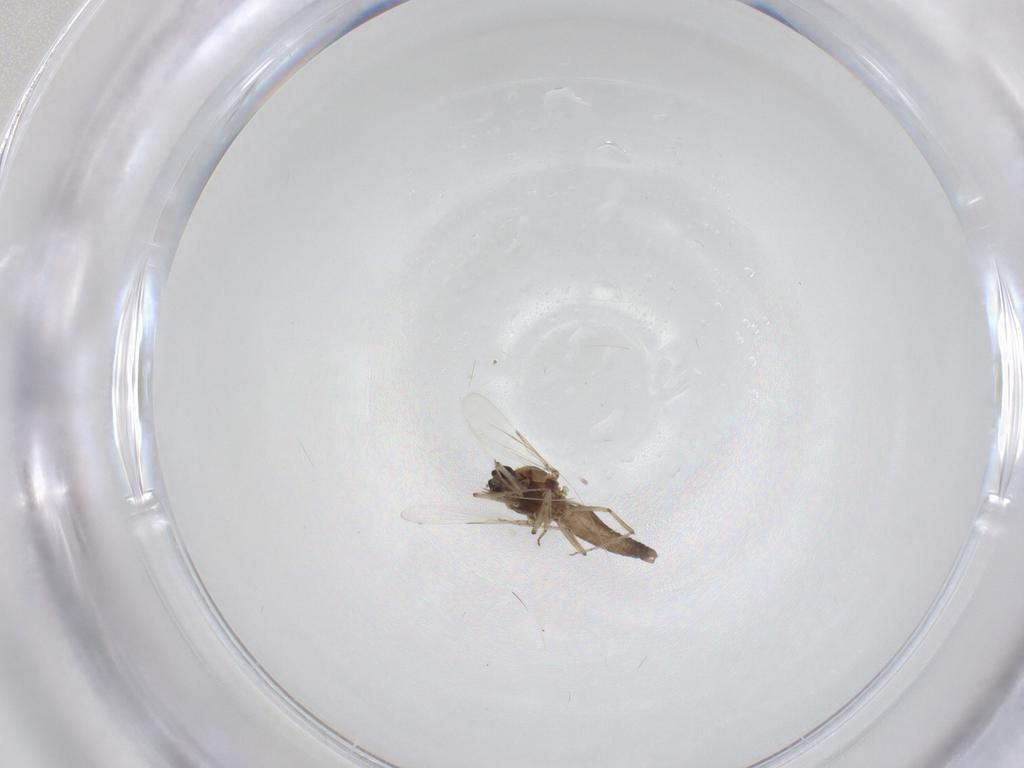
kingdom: Animalia
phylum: Arthropoda
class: Insecta
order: Diptera
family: Ceratopogonidae
